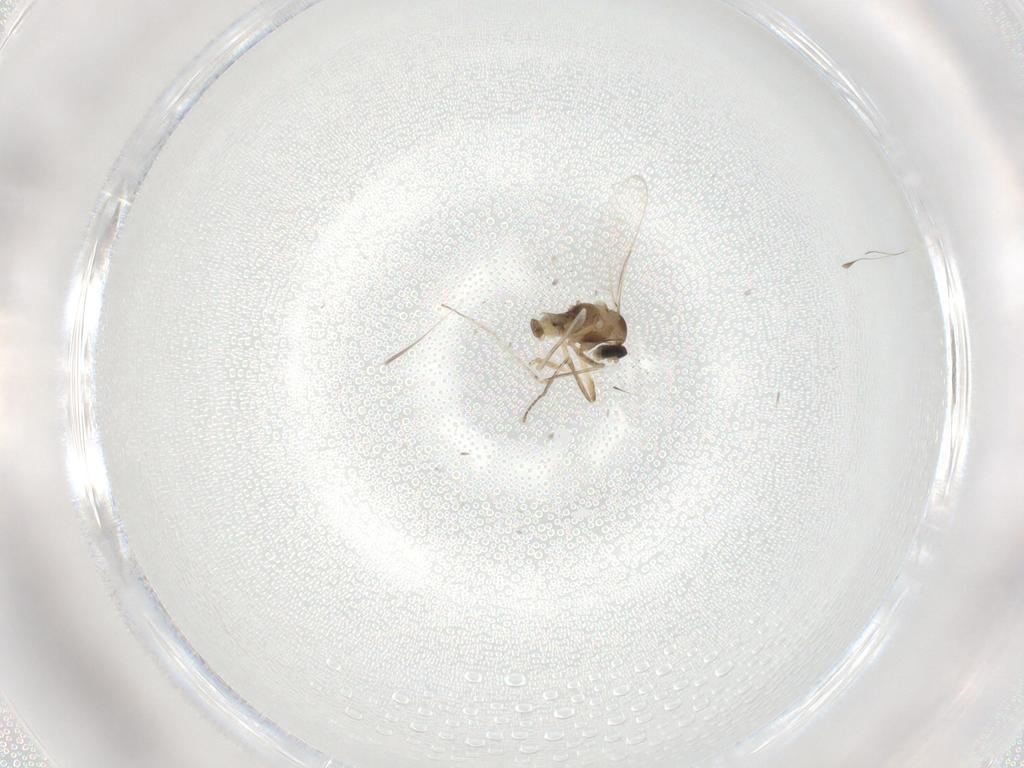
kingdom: Animalia
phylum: Arthropoda
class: Insecta
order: Diptera
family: Cecidomyiidae
